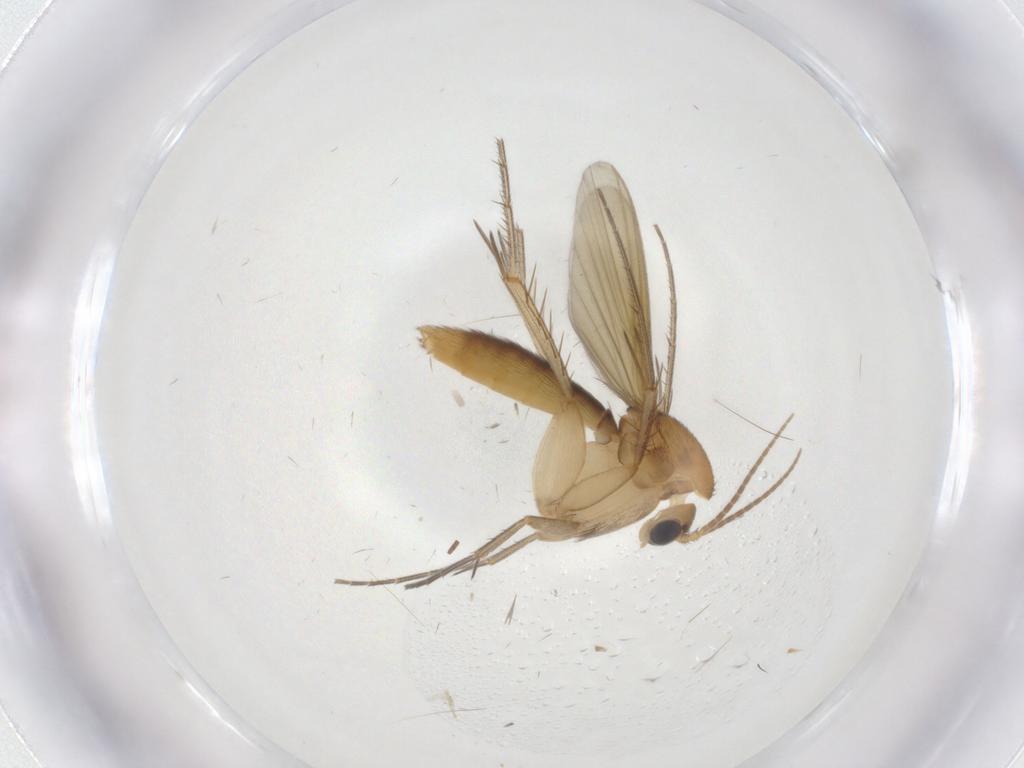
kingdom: Animalia
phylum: Arthropoda
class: Insecta
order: Diptera
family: Mycetophilidae
